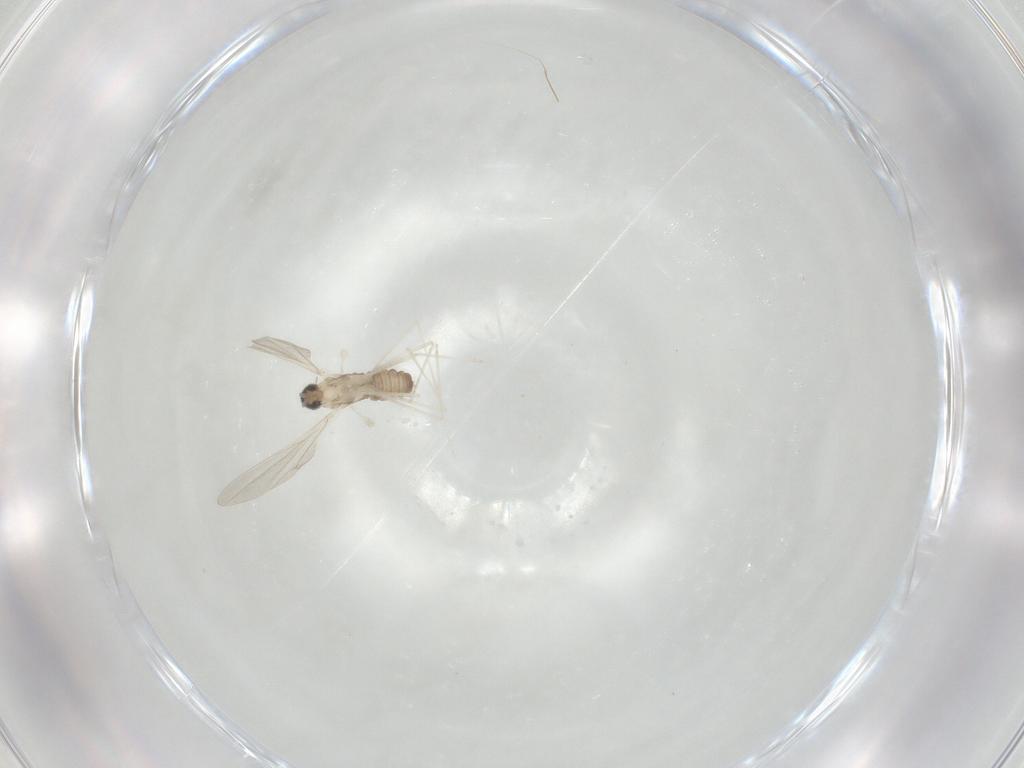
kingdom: Animalia
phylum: Arthropoda
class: Insecta
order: Diptera
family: Cecidomyiidae
